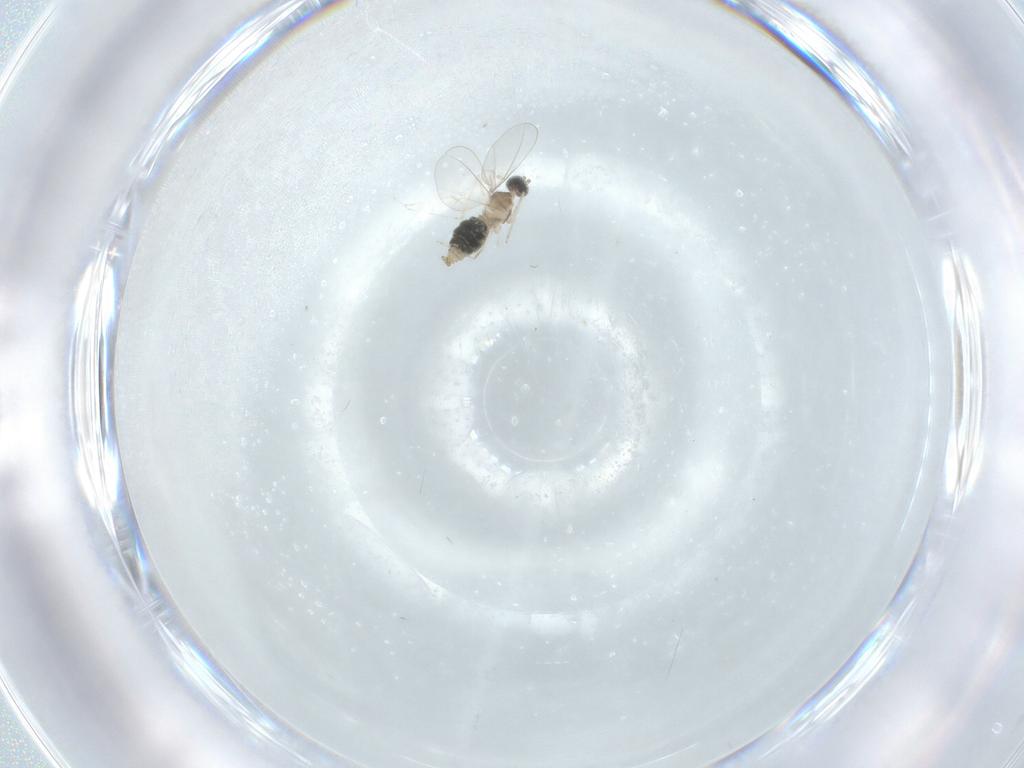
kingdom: Animalia
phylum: Arthropoda
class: Insecta
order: Diptera
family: Cecidomyiidae
